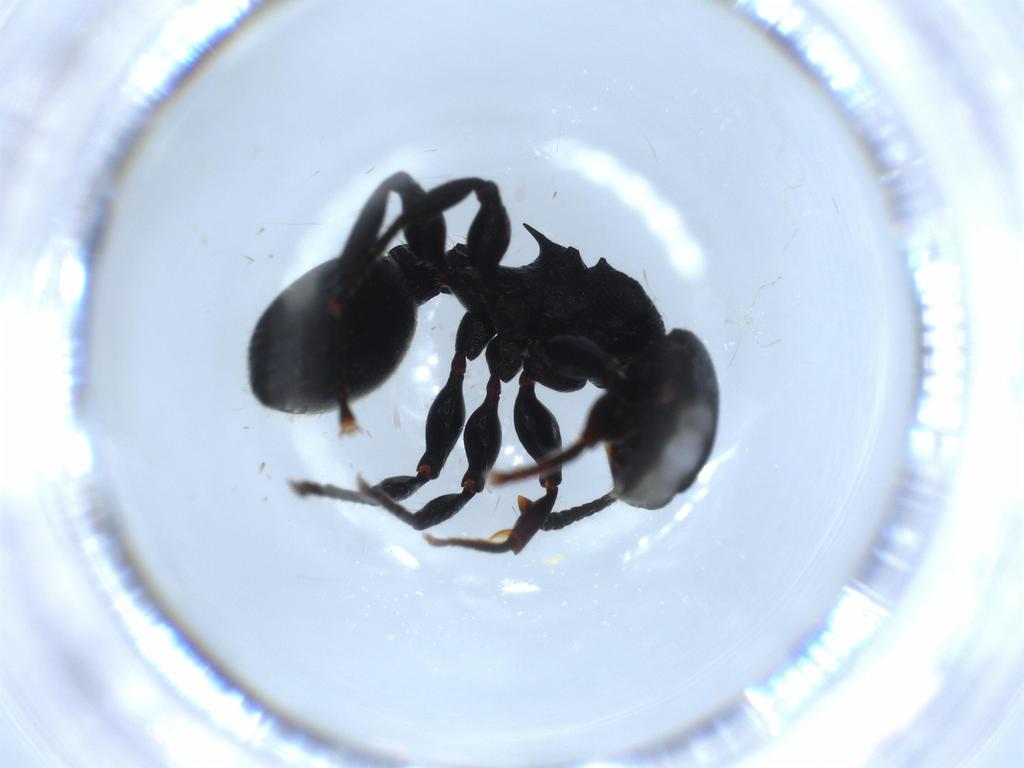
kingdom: Animalia
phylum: Arthropoda
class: Insecta
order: Hymenoptera
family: Formicidae
